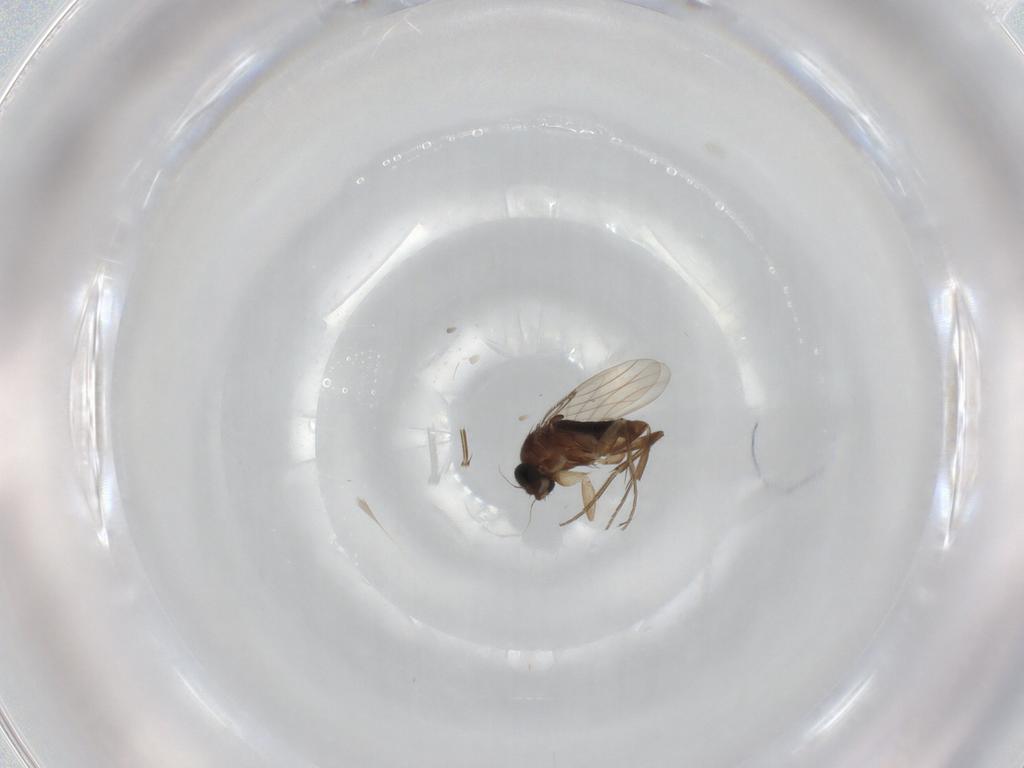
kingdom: Animalia
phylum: Arthropoda
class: Insecta
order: Diptera
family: Phoridae
